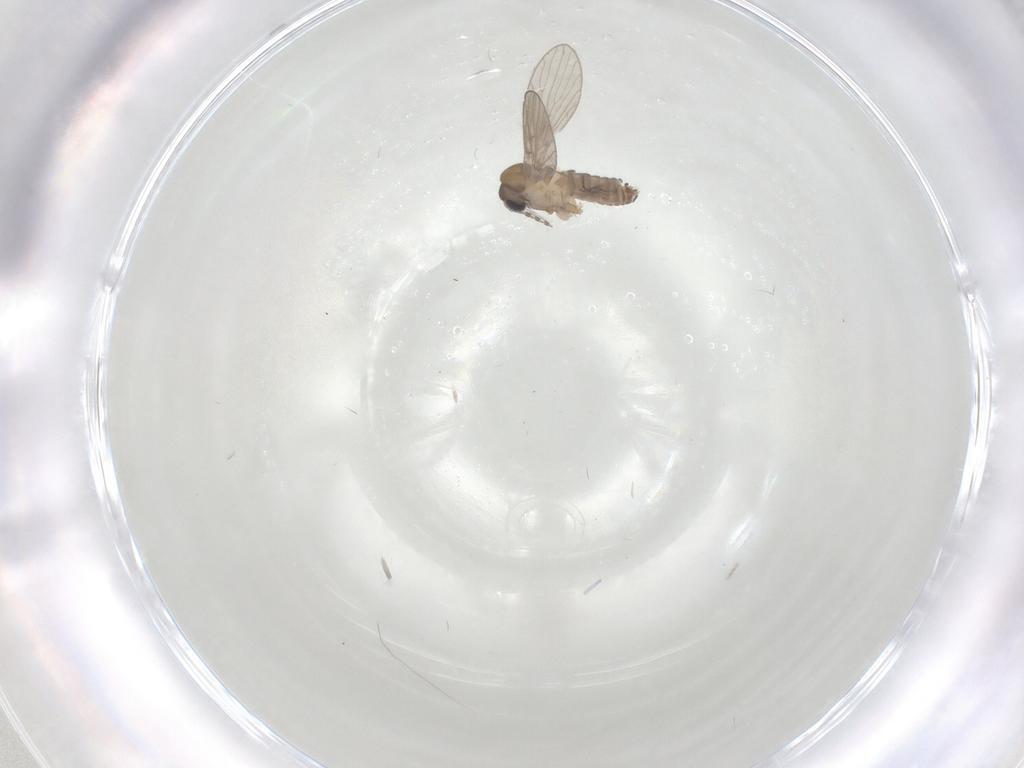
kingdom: Animalia
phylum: Arthropoda
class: Insecta
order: Diptera
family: Psychodidae
